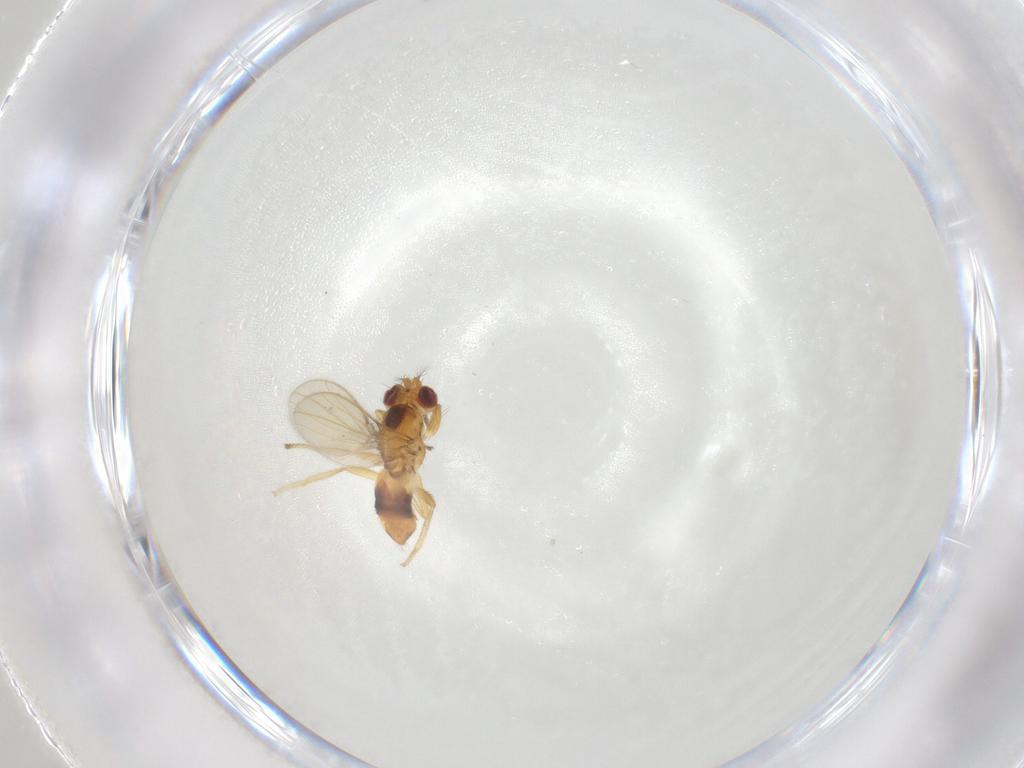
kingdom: Animalia
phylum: Arthropoda
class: Insecta
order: Diptera
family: Periscelididae
